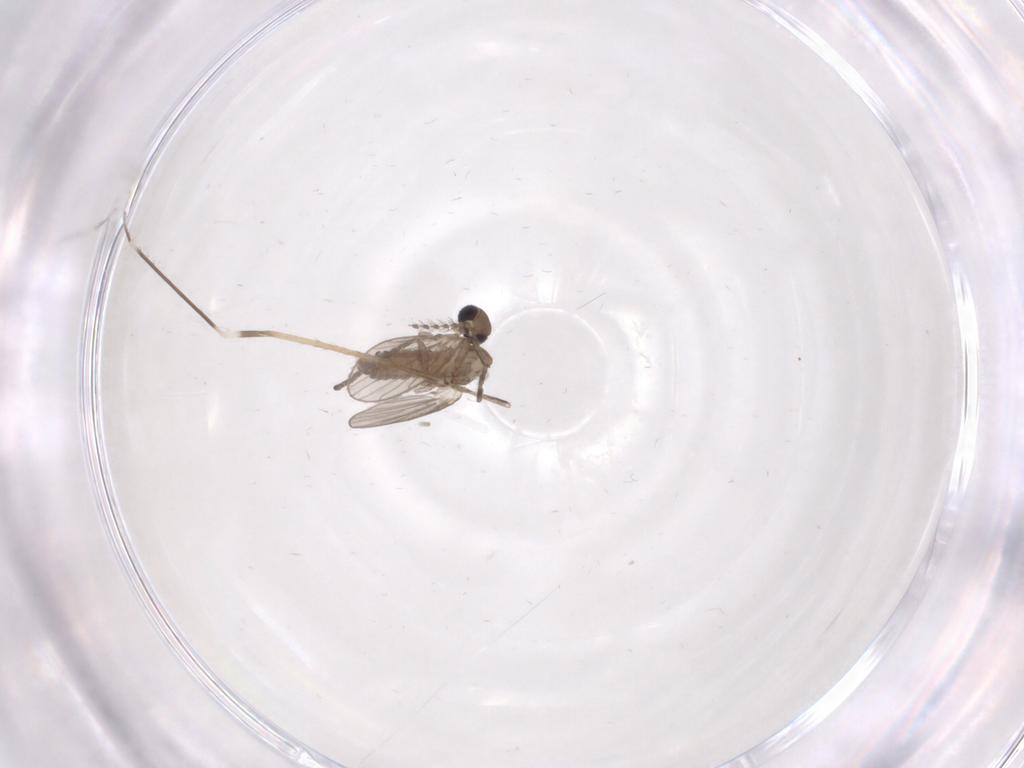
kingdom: Animalia
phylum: Arthropoda
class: Insecta
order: Diptera
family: Limoniidae
